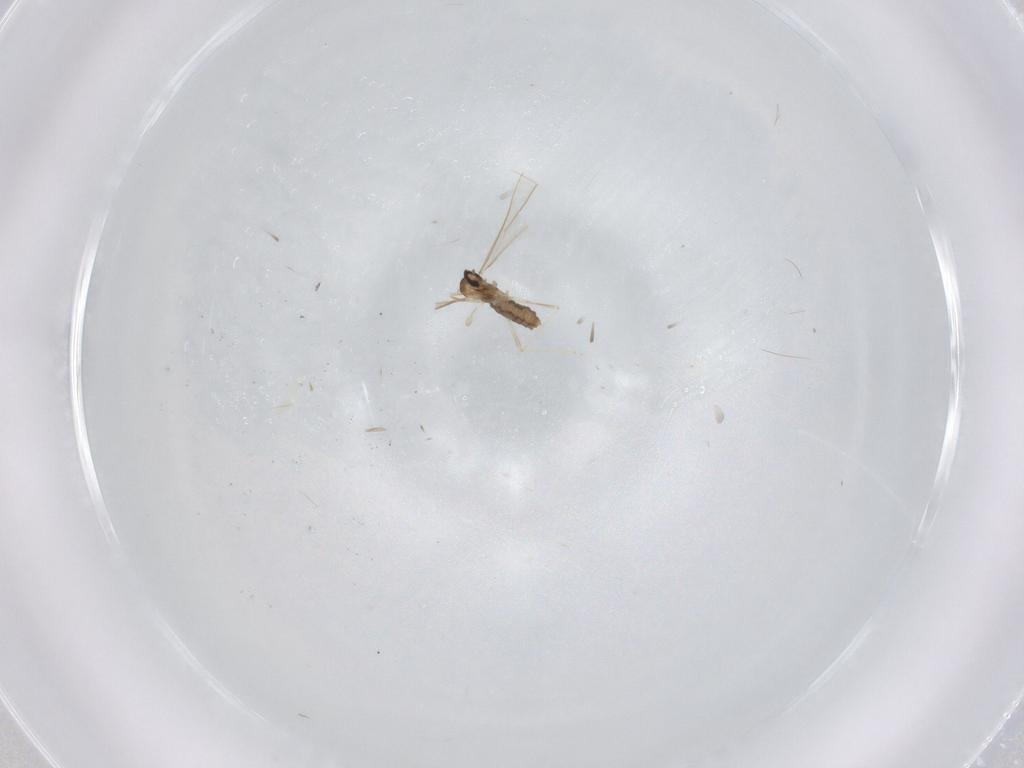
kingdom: Animalia
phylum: Arthropoda
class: Insecta
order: Diptera
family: Cecidomyiidae
